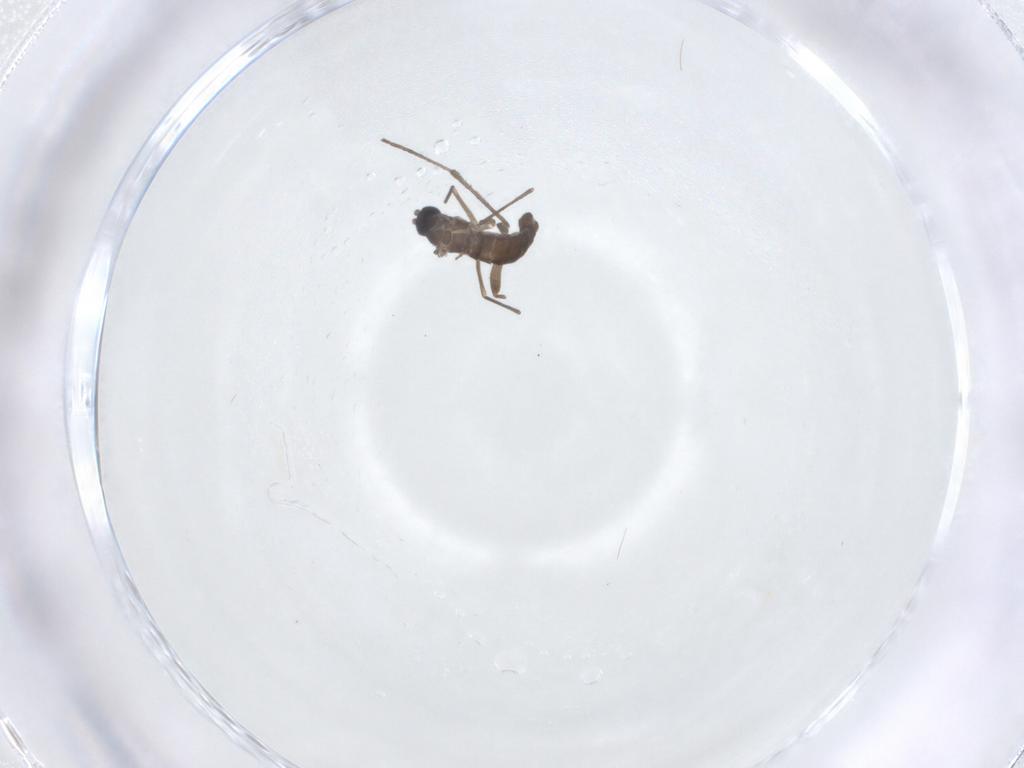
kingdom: Animalia
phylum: Arthropoda
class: Insecta
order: Diptera
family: Sciaridae
